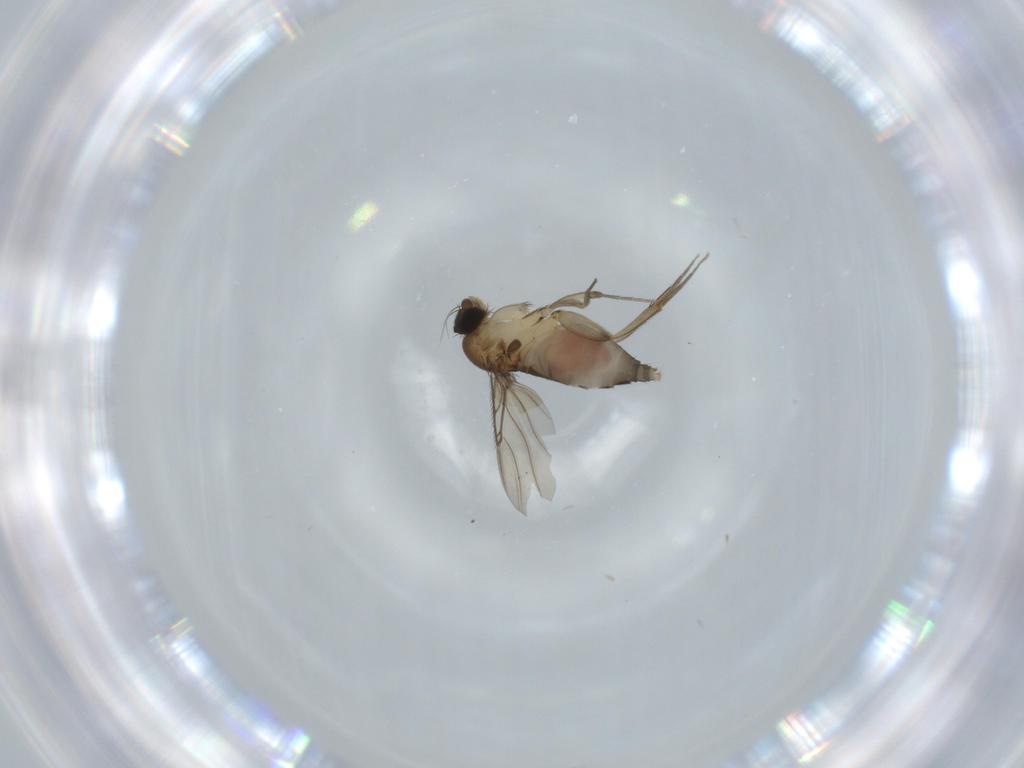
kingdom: Animalia
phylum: Arthropoda
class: Insecta
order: Diptera
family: Phoridae
